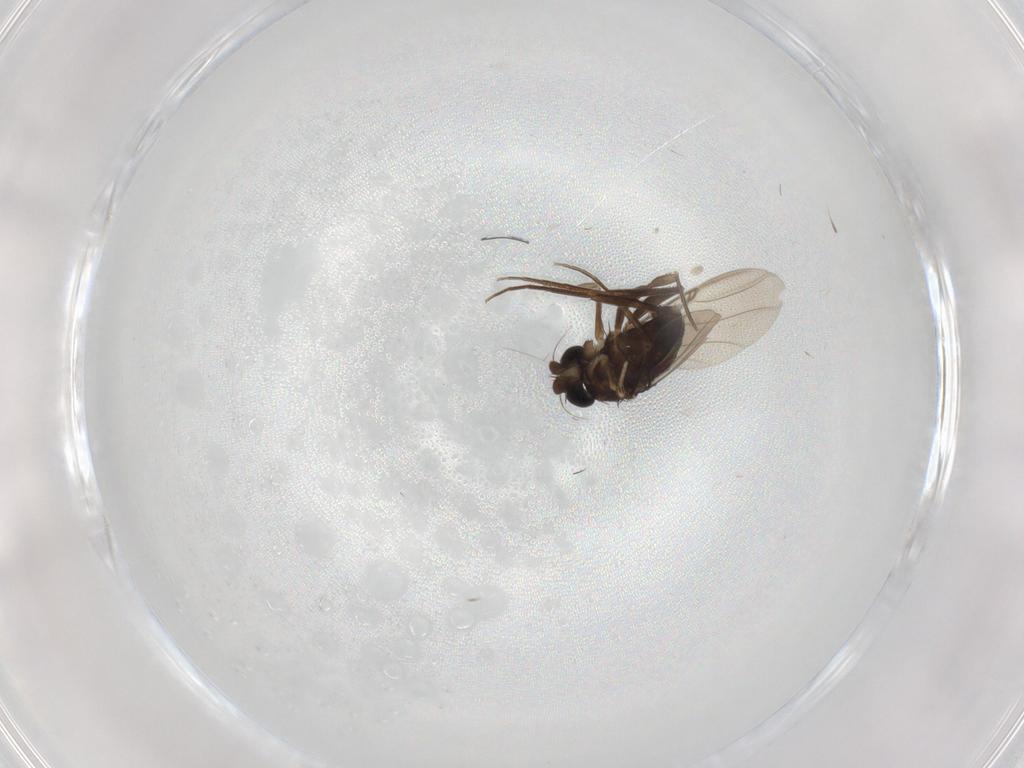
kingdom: Animalia
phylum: Arthropoda
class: Insecta
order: Diptera
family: Phoridae
